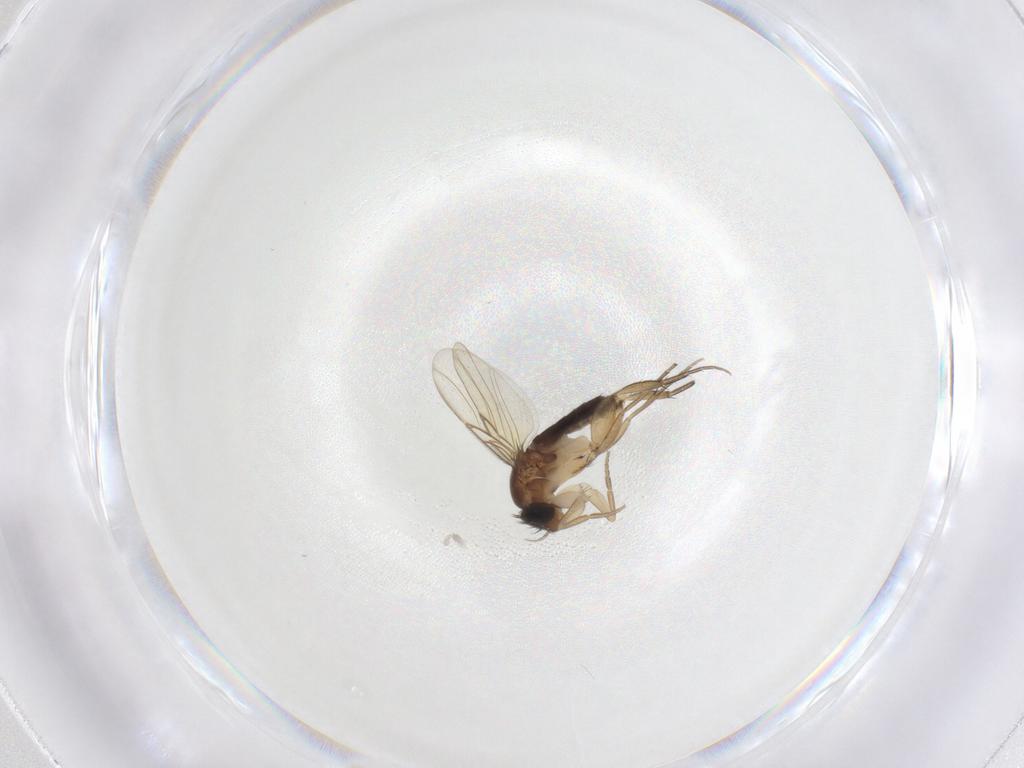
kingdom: Animalia
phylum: Arthropoda
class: Insecta
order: Diptera
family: Phoridae
